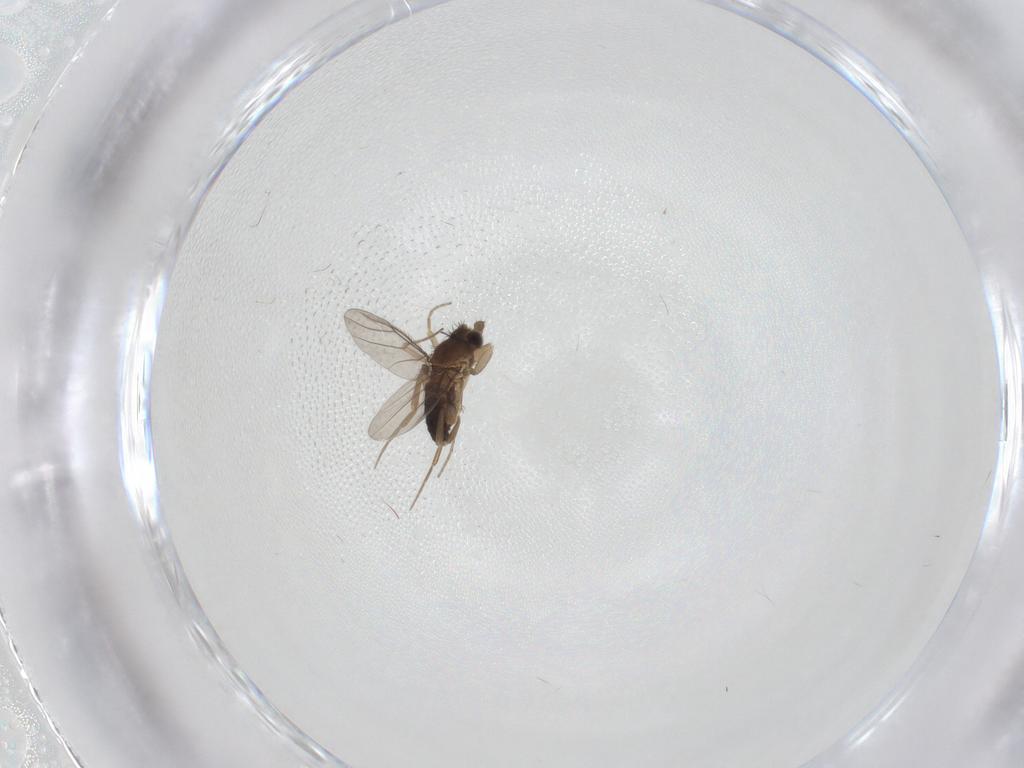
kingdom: Animalia
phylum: Arthropoda
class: Insecta
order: Diptera
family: Phoridae
